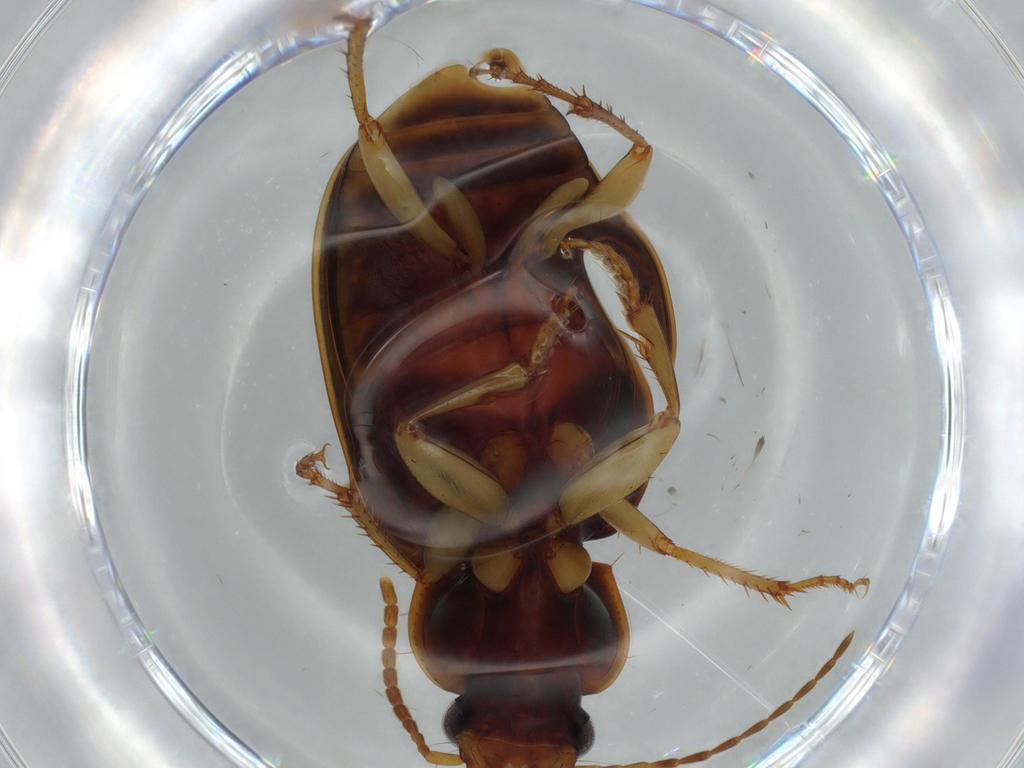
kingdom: Animalia
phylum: Arthropoda
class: Insecta
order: Coleoptera
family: Carabidae
